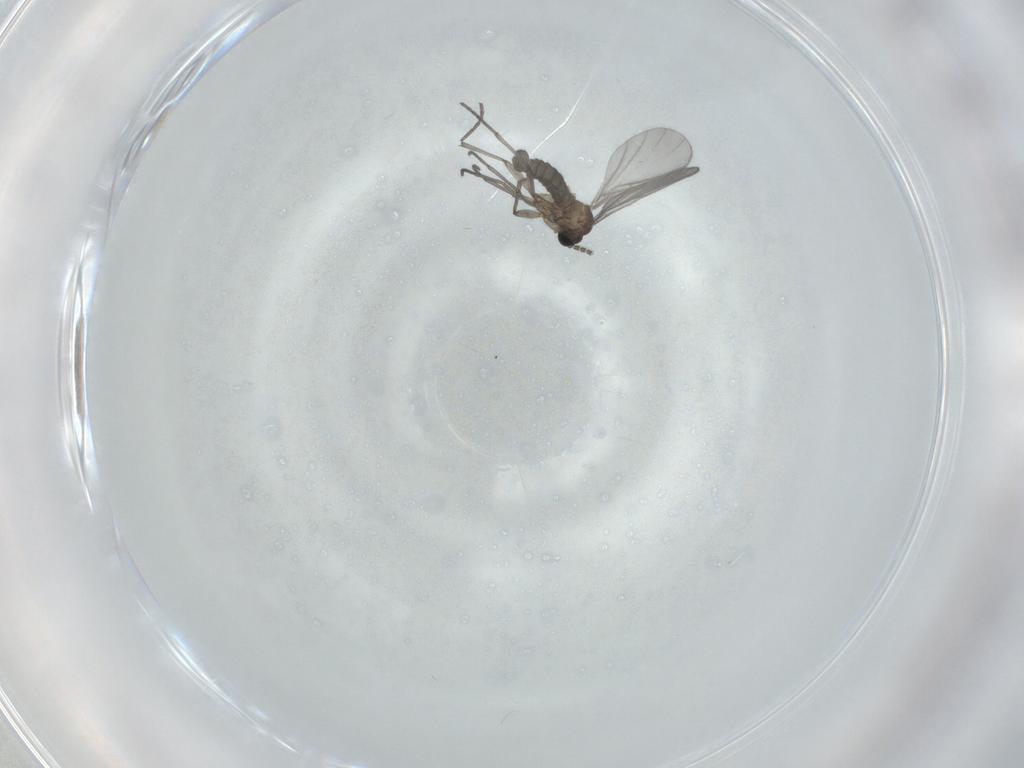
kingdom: Animalia
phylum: Arthropoda
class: Insecta
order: Diptera
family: Sciaridae
